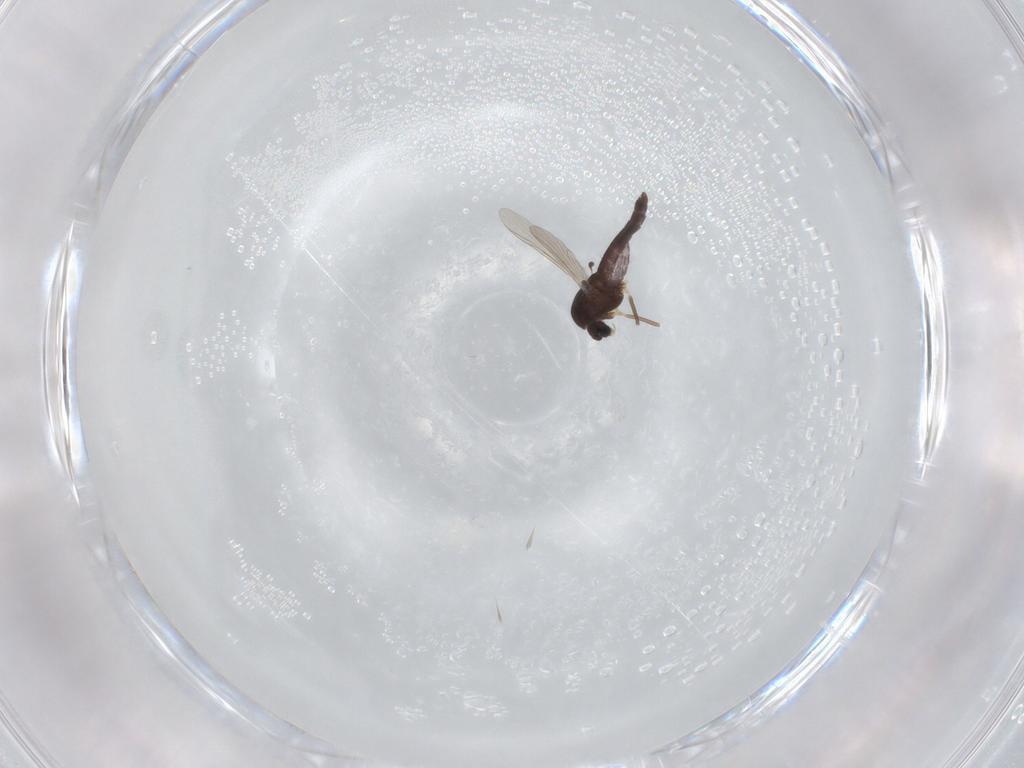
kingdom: Animalia
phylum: Arthropoda
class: Insecta
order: Diptera
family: Chironomidae
